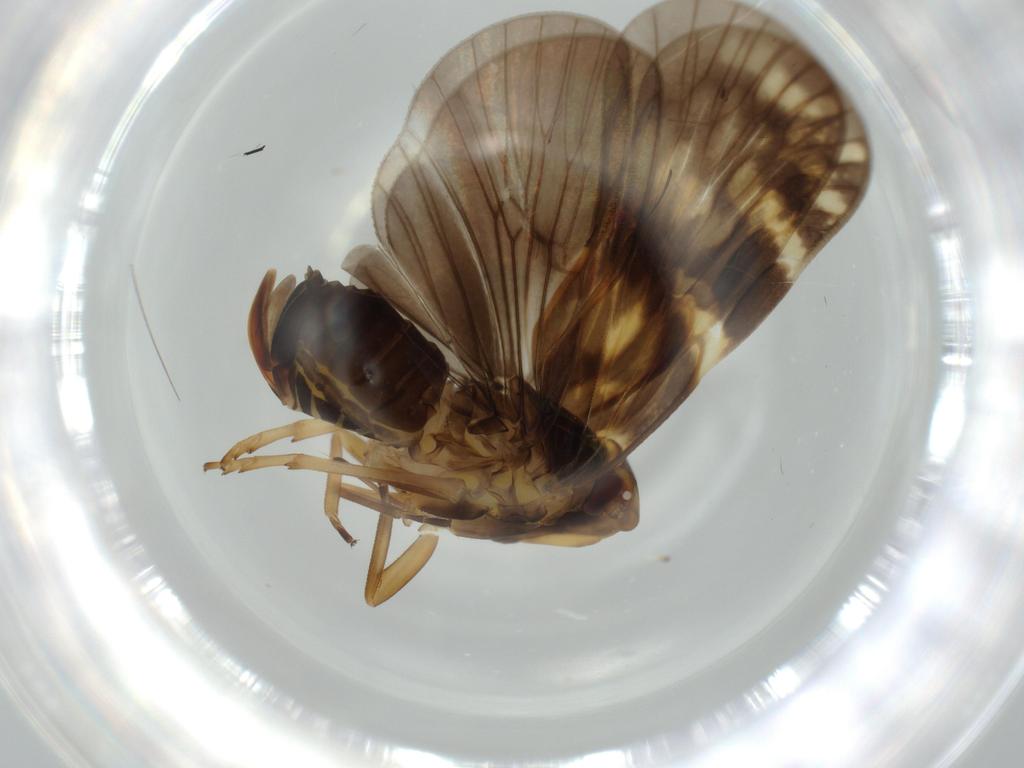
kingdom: Animalia
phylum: Arthropoda
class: Insecta
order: Hemiptera
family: Cixiidae
